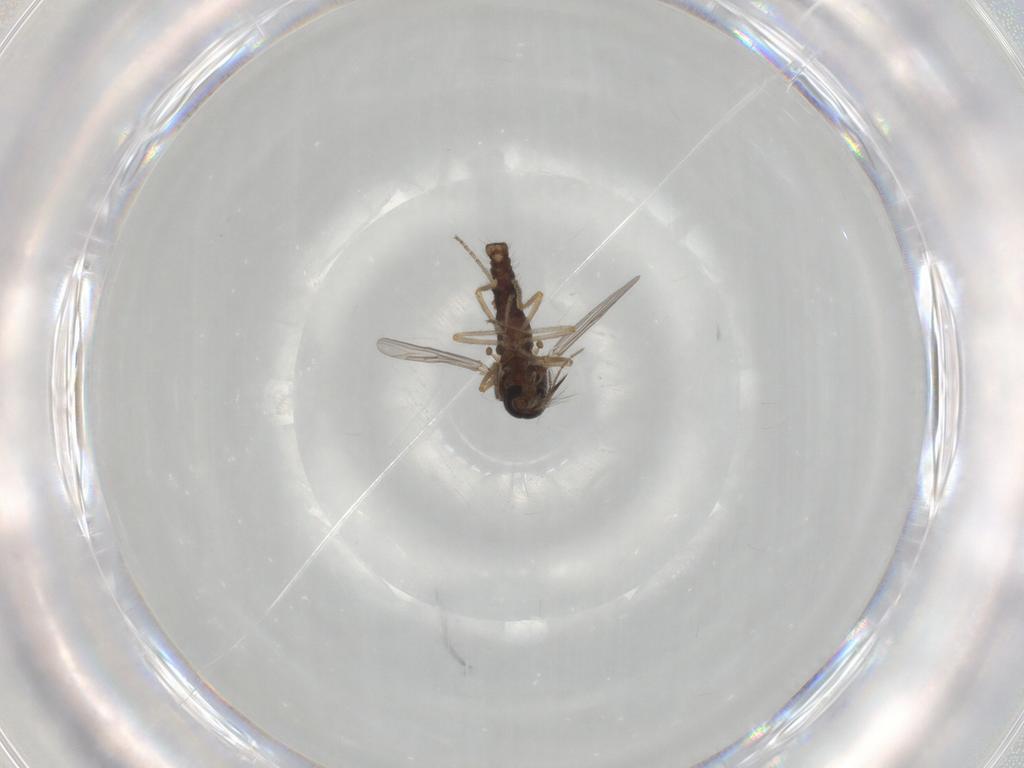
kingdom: Animalia
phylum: Arthropoda
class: Insecta
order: Diptera
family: Ceratopogonidae
